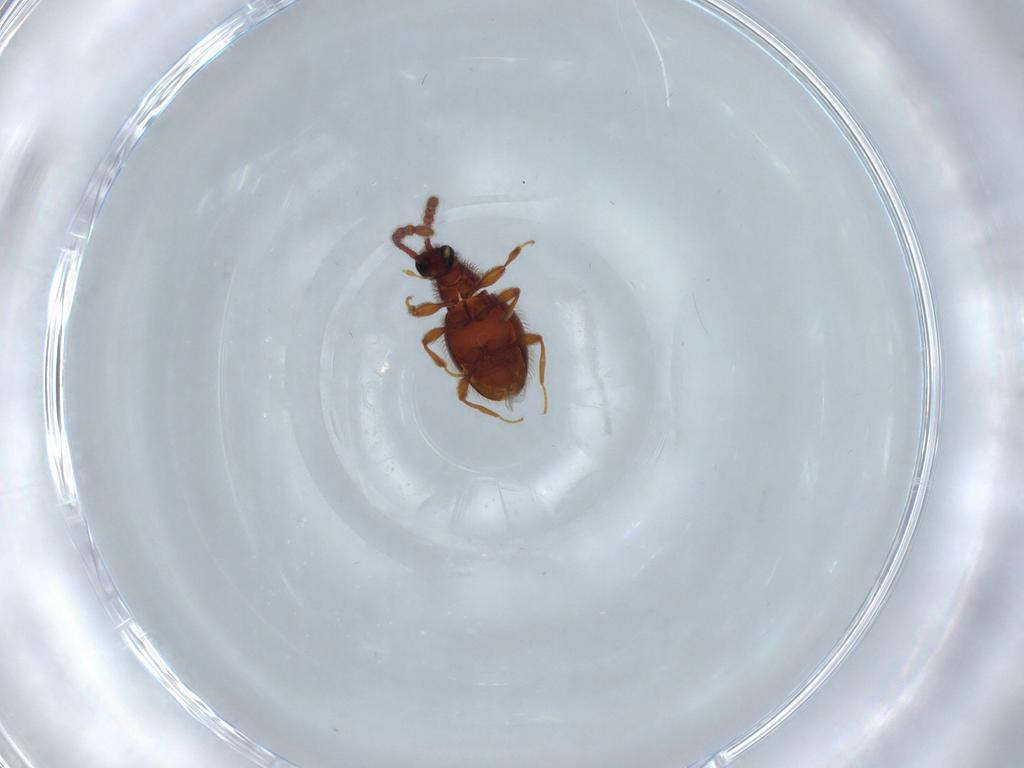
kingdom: Animalia
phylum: Arthropoda
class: Insecta
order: Coleoptera
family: Staphylinidae
